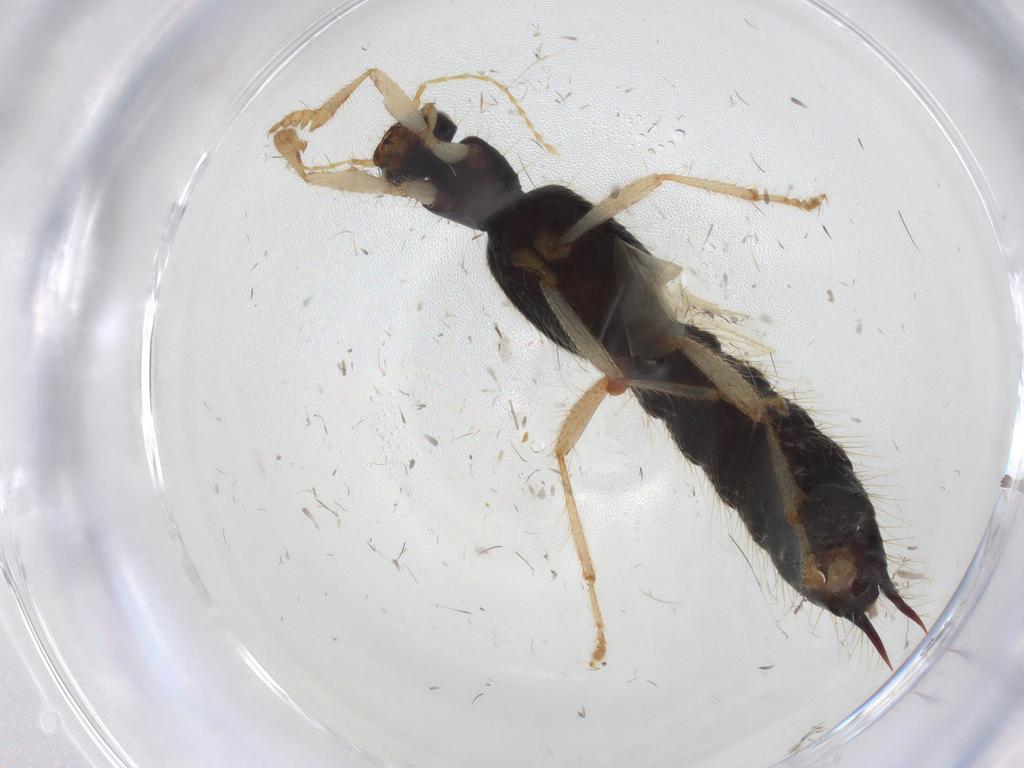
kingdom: Animalia
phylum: Arthropoda
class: Insecta
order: Coleoptera
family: Staphylinidae
